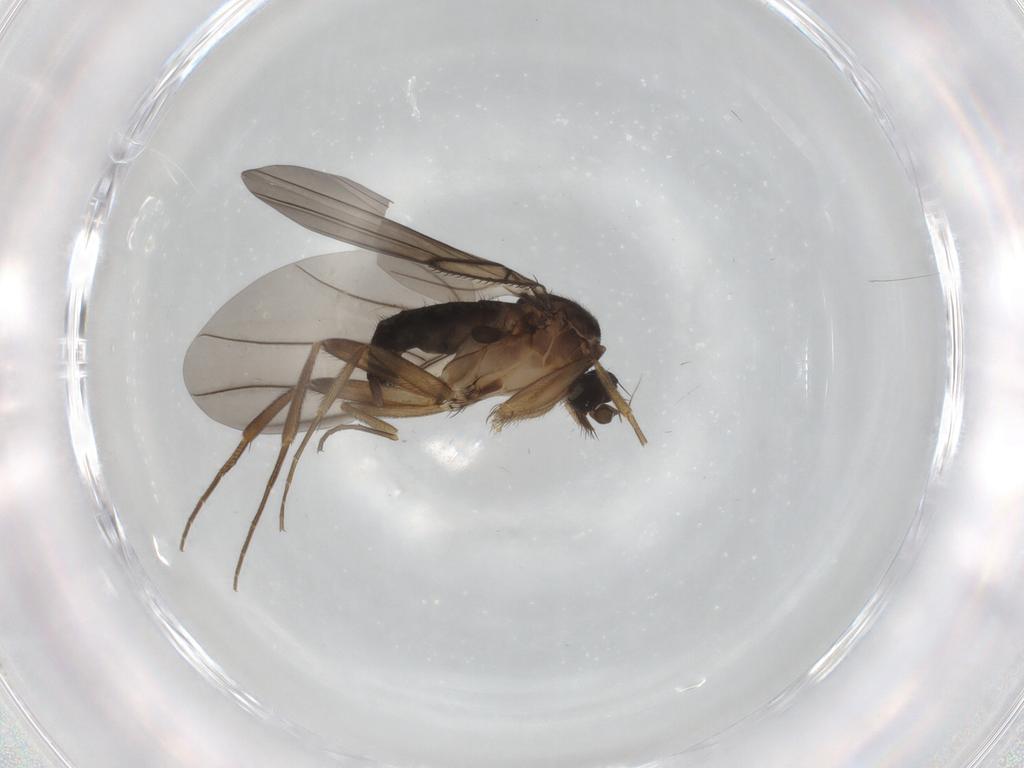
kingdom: Animalia
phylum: Arthropoda
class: Insecta
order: Diptera
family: Phoridae
